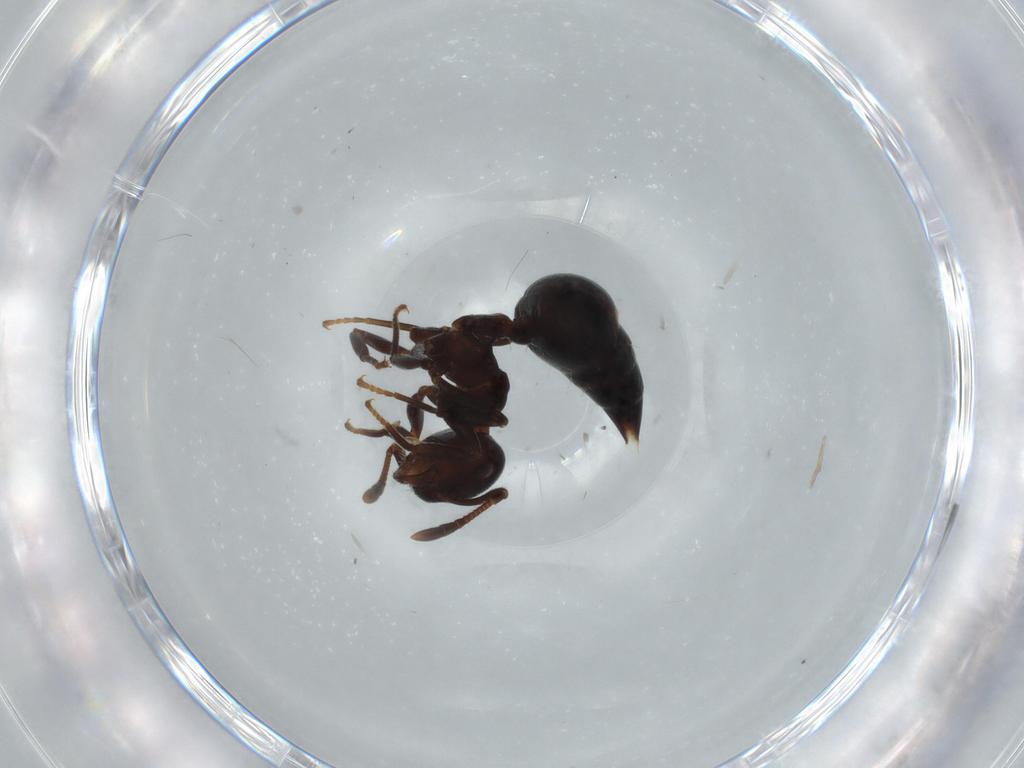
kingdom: Animalia
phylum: Arthropoda
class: Insecta
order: Hymenoptera
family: Formicidae
